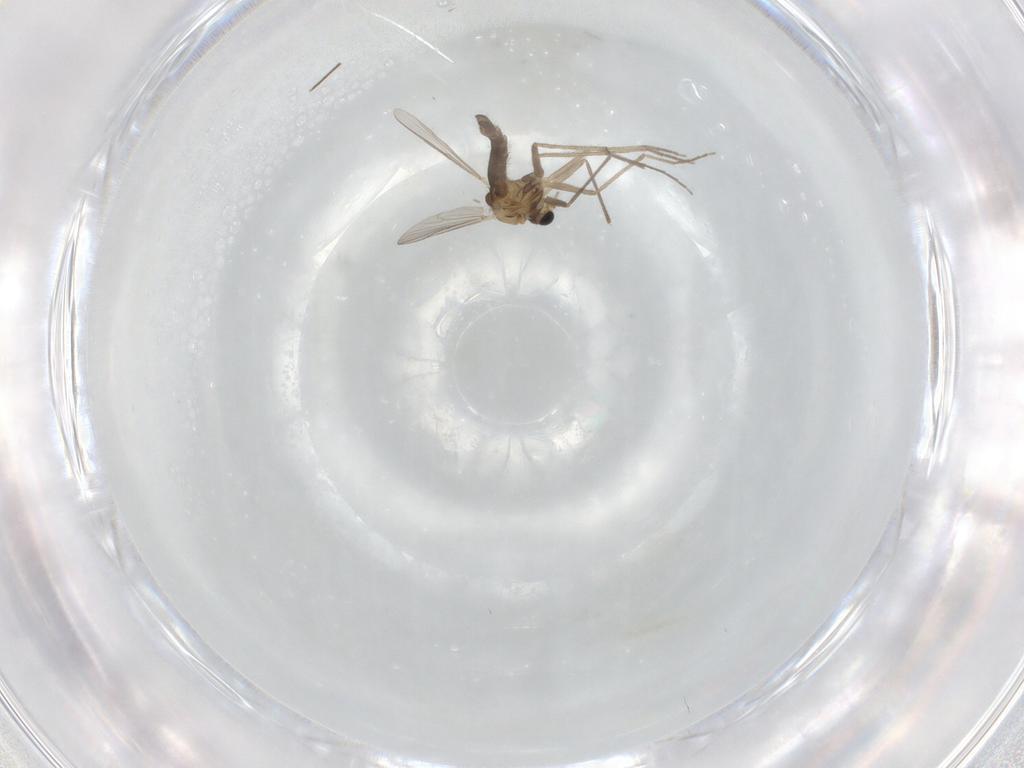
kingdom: Animalia
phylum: Arthropoda
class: Insecta
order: Diptera
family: Chironomidae
